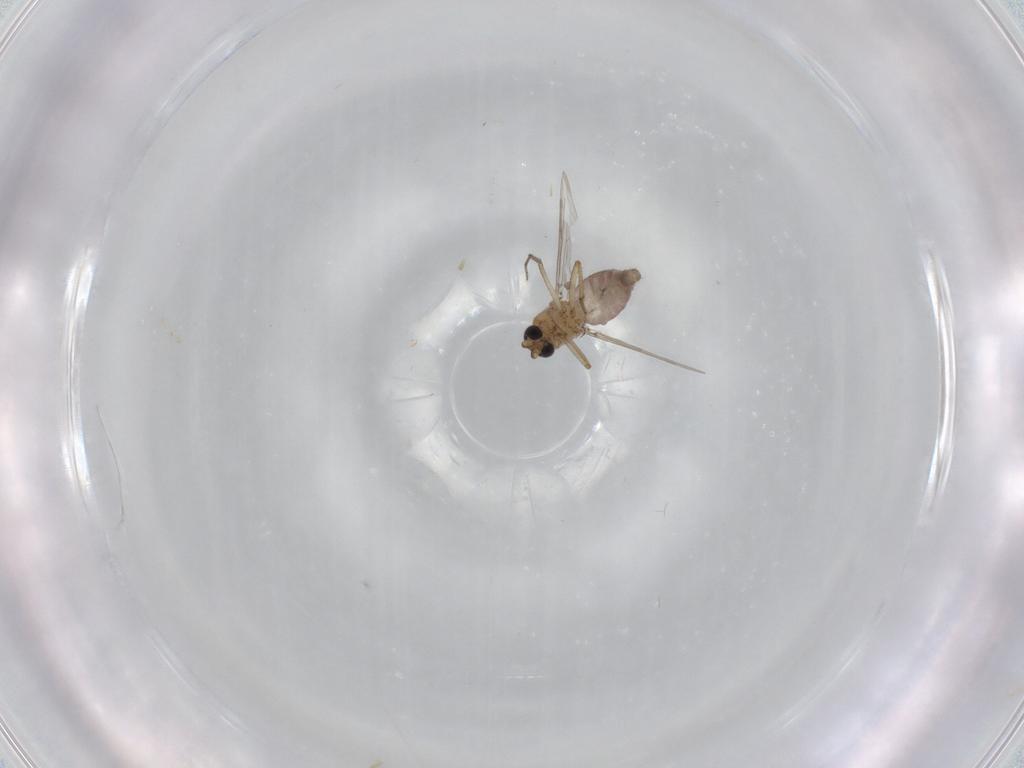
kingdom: Animalia
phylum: Arthropoda
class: Insecta
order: Diptera
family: Ceratopogonidae
